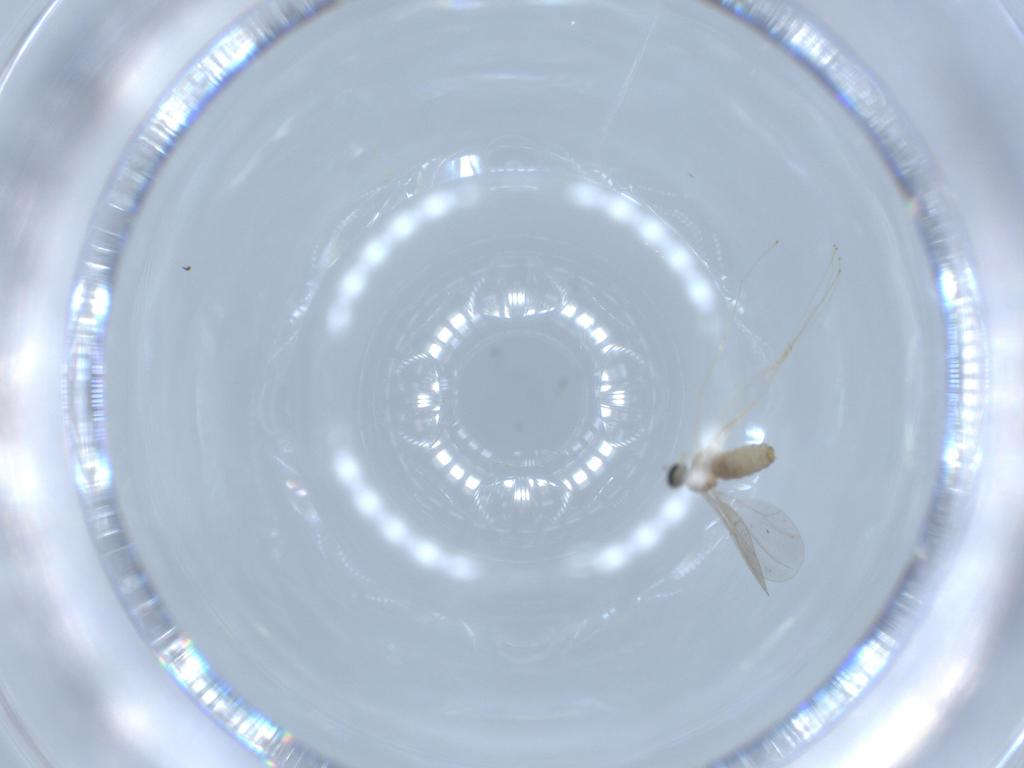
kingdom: Animalia
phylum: Arthropoda
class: Insecta
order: Diptera
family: Cecidomyiidae
